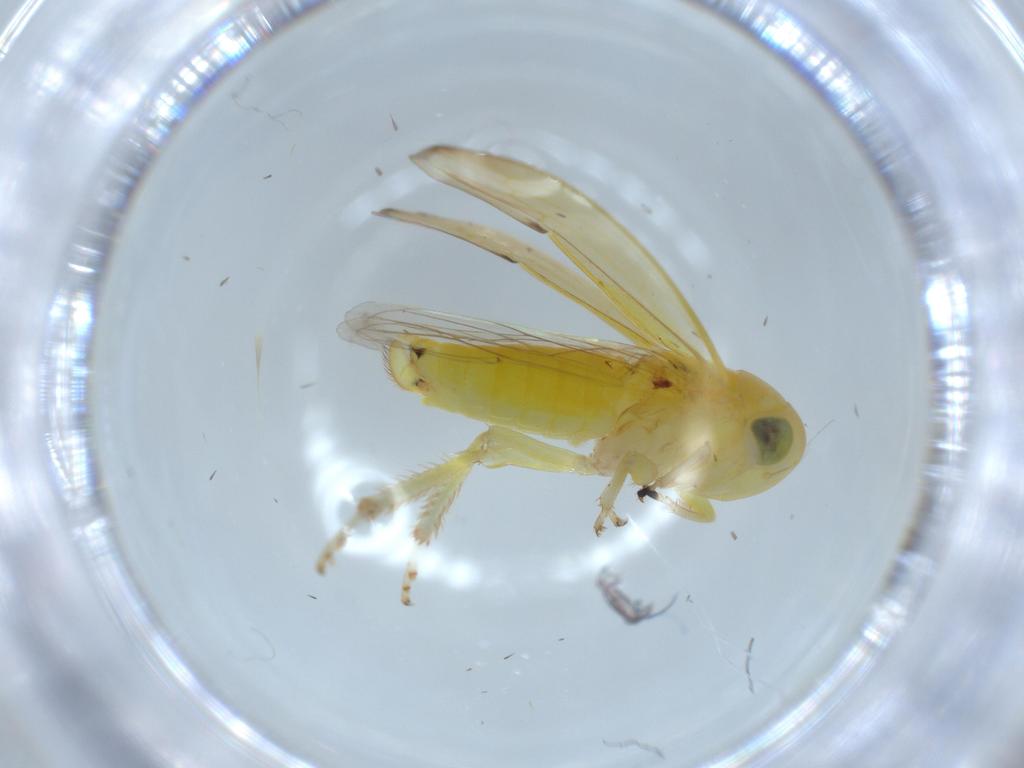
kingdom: Animalia
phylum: Arthropoda
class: Insecta
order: Hemiptera
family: Cicadellidae
